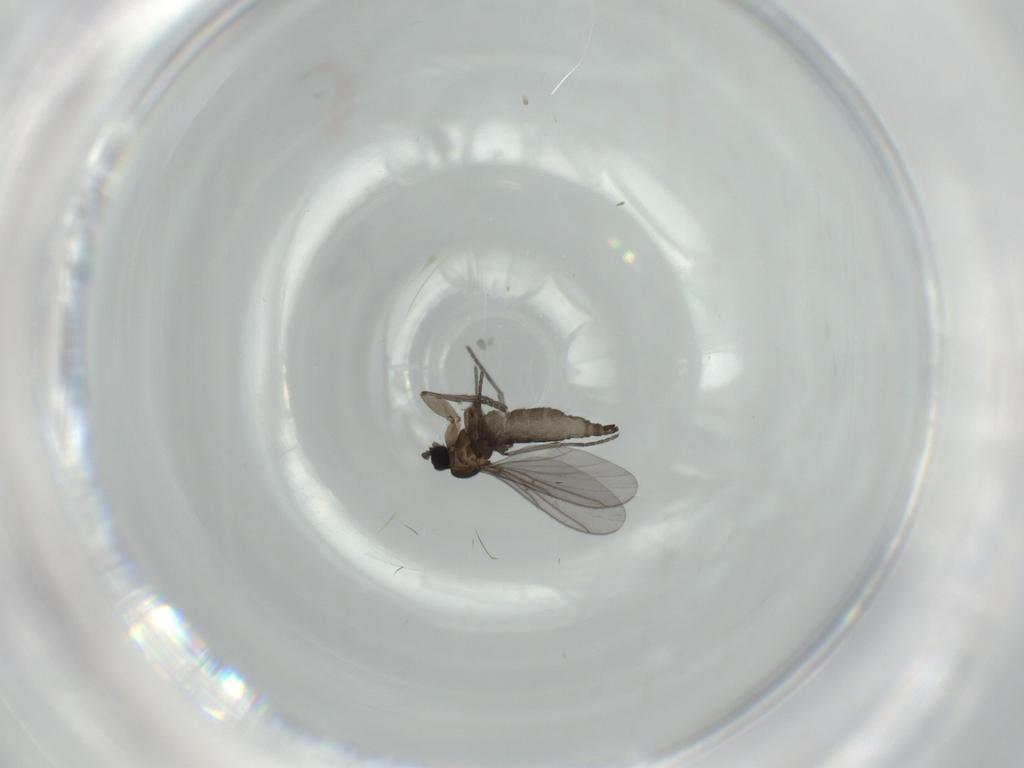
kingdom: Animalia
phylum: Arthropoda
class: Insecta
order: Diptera
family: Cecidomyiidae
